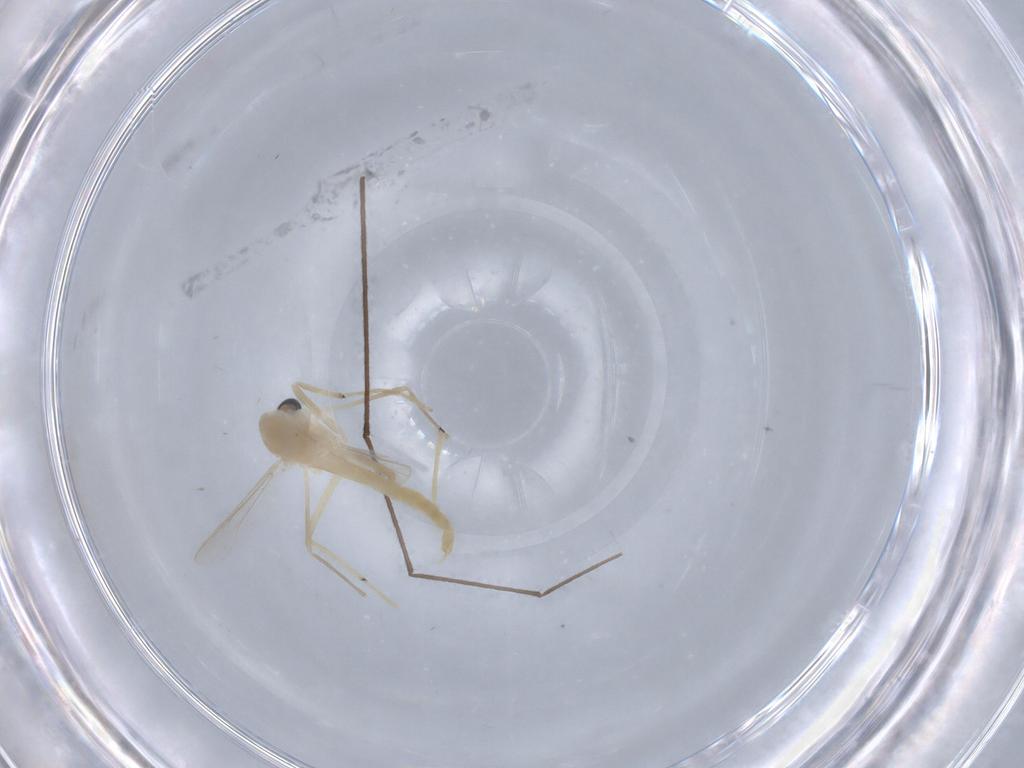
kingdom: Animalia
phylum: Arthropoda
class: Insecta
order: Diptera
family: Chironomidae
